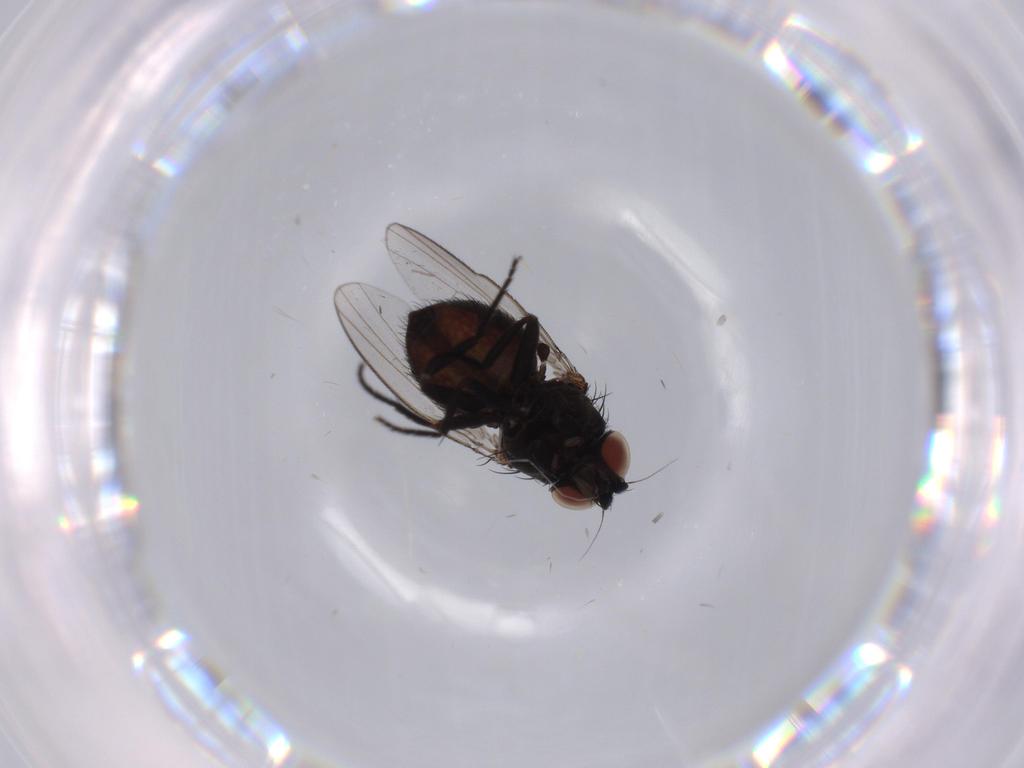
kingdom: Animalia
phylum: Arthropoda
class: Insecta
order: Diptera
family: Milichiidae
